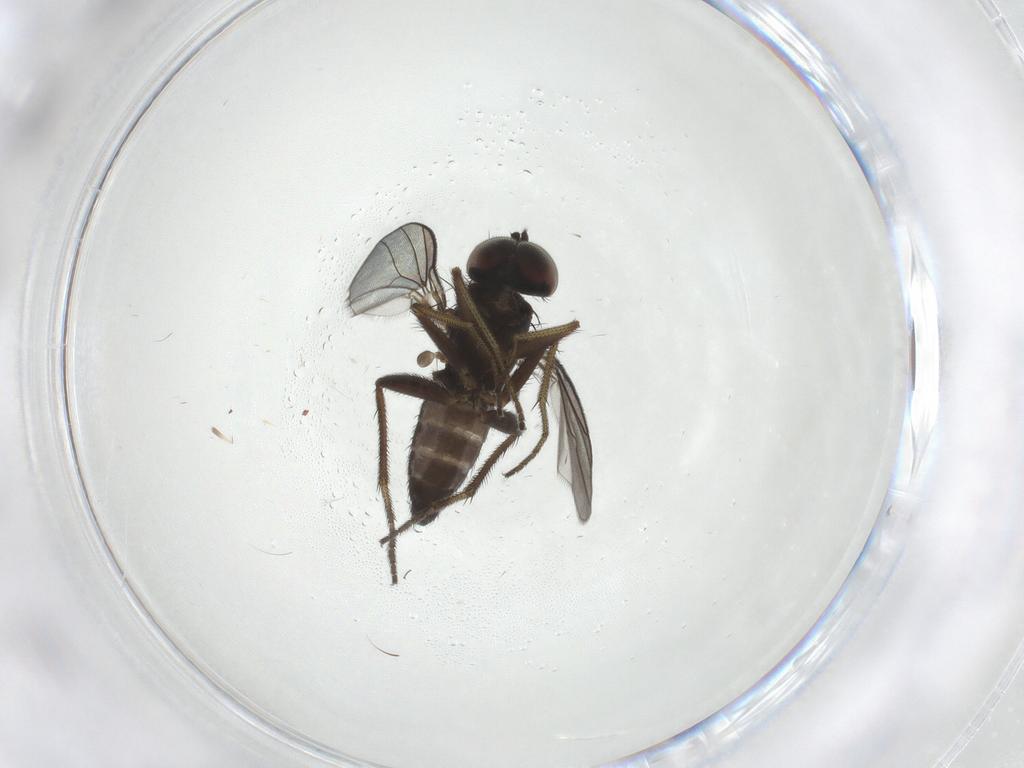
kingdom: Animalia
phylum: Arthropoda
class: Insecta
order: Diptera
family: Dolichopodidae
